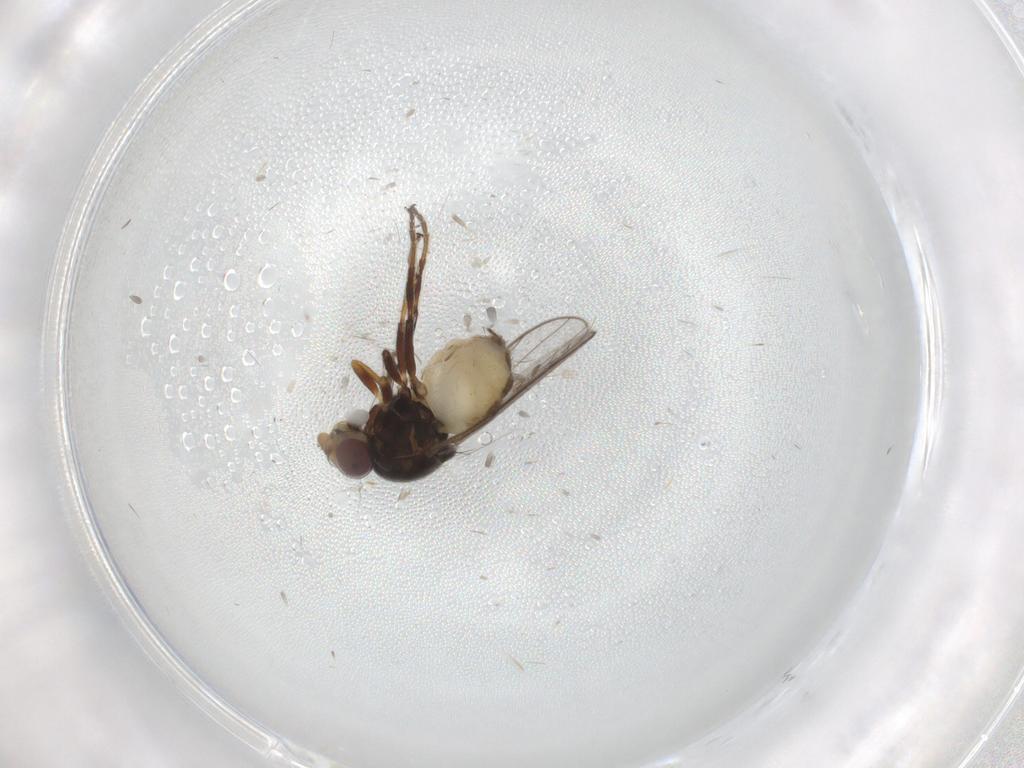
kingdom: Animalia
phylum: Arthropoda
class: Insecta
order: Diptera
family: Chloropidae
